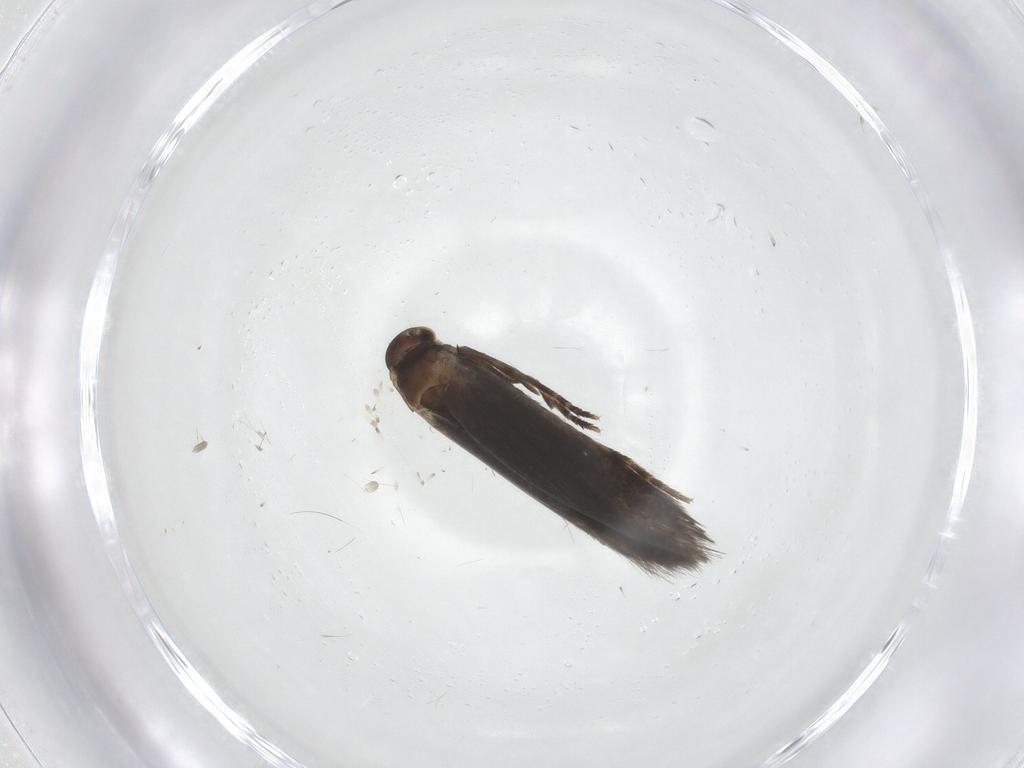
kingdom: Animalia
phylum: Arthropoda
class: Insecta
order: Lepidoptera
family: Elachistidae
